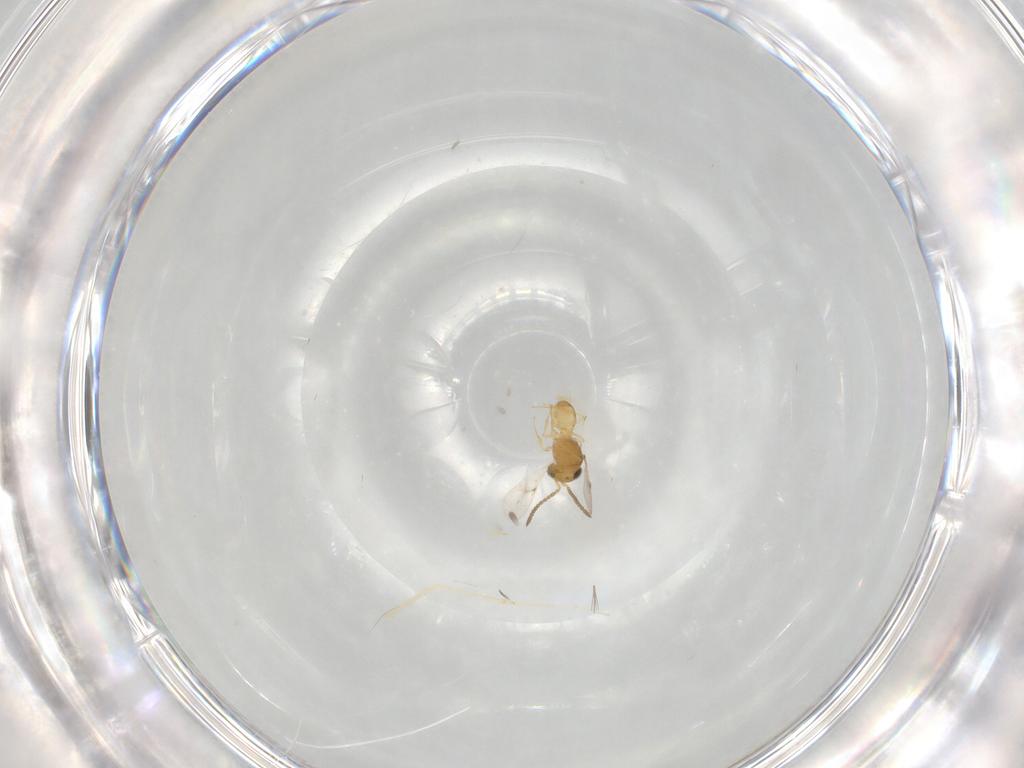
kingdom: Animalia
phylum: Arthropoda
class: Insecta
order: Hymenoptera
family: Scelionidae
